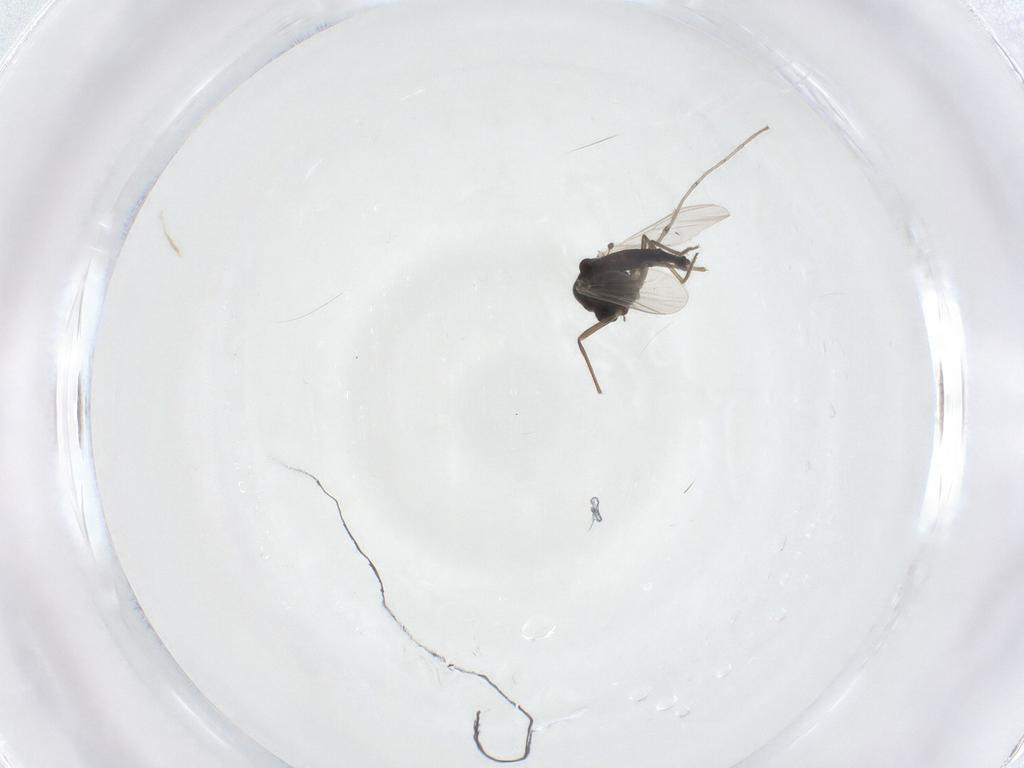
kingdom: Animalia
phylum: Arthropoda
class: Insecta
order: Diptera
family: Chironomidae
